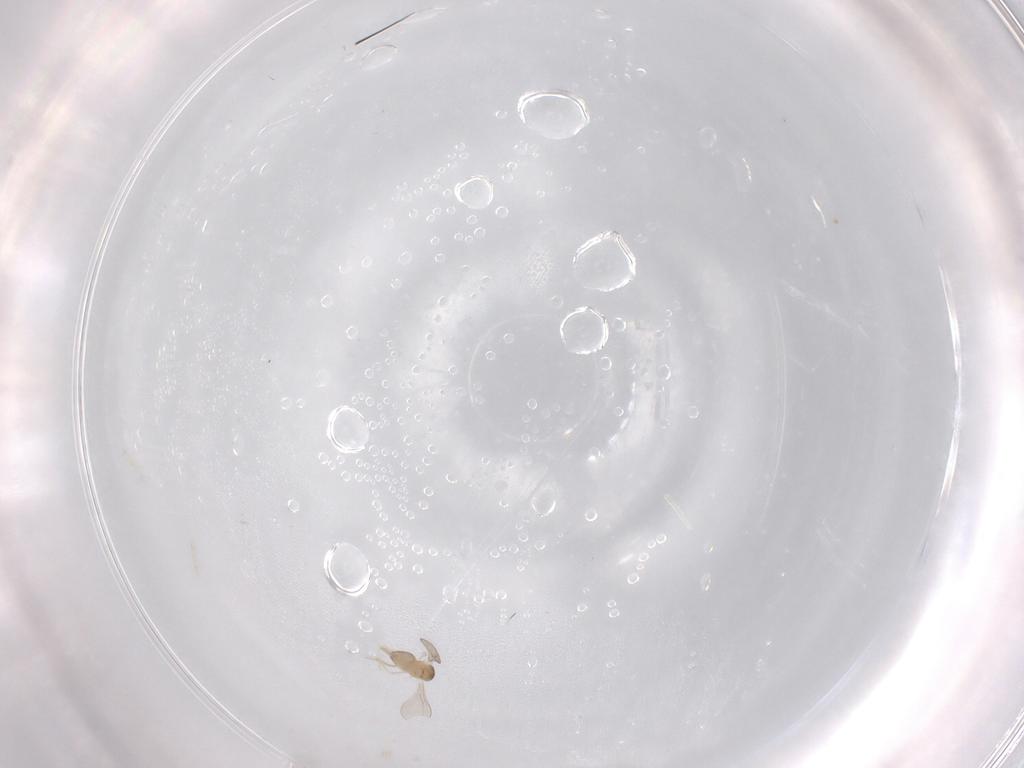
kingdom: Animalia
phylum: Arthropoda
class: Insecta
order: Diptera
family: Cecidomyiidae
